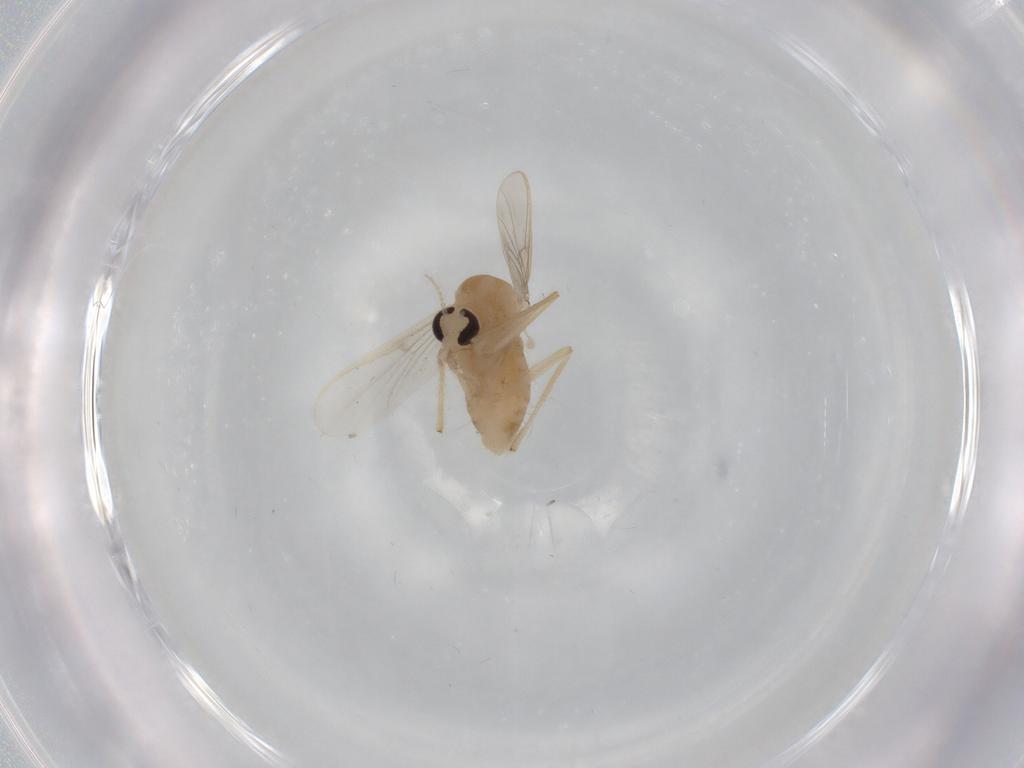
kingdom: Animalia
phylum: Arthropoda
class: Insecta
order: Diptera
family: Chironomidae
